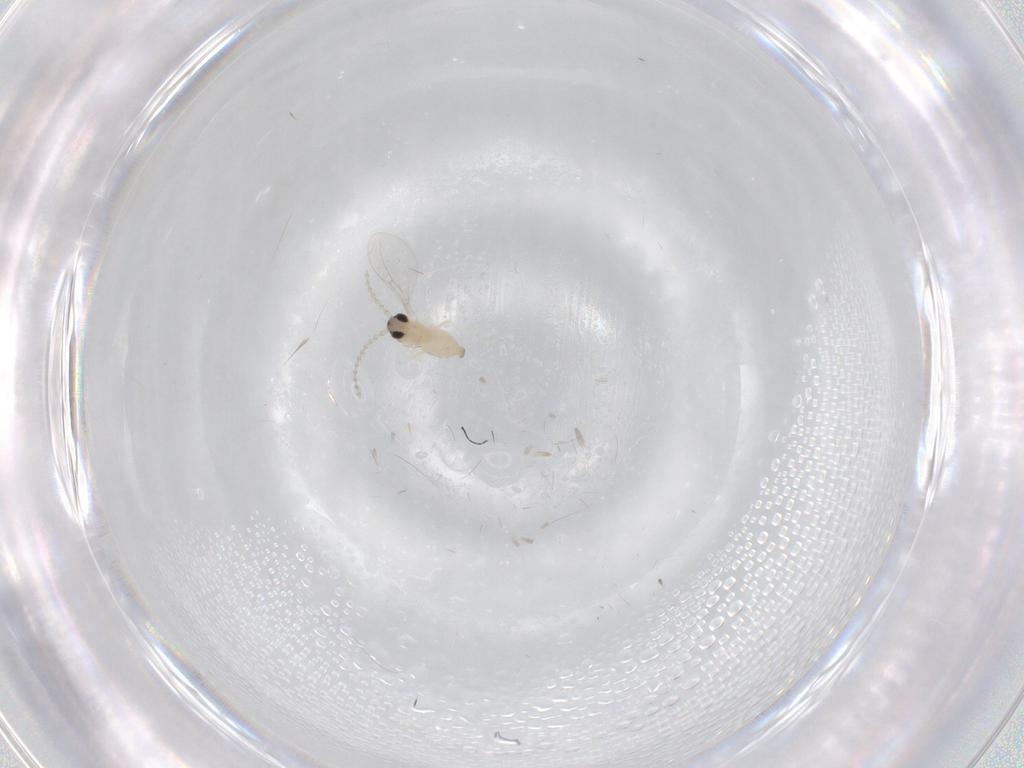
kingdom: Animalia
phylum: Arthropoda
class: Insecta
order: Diptera
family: Cecidomyiidae
